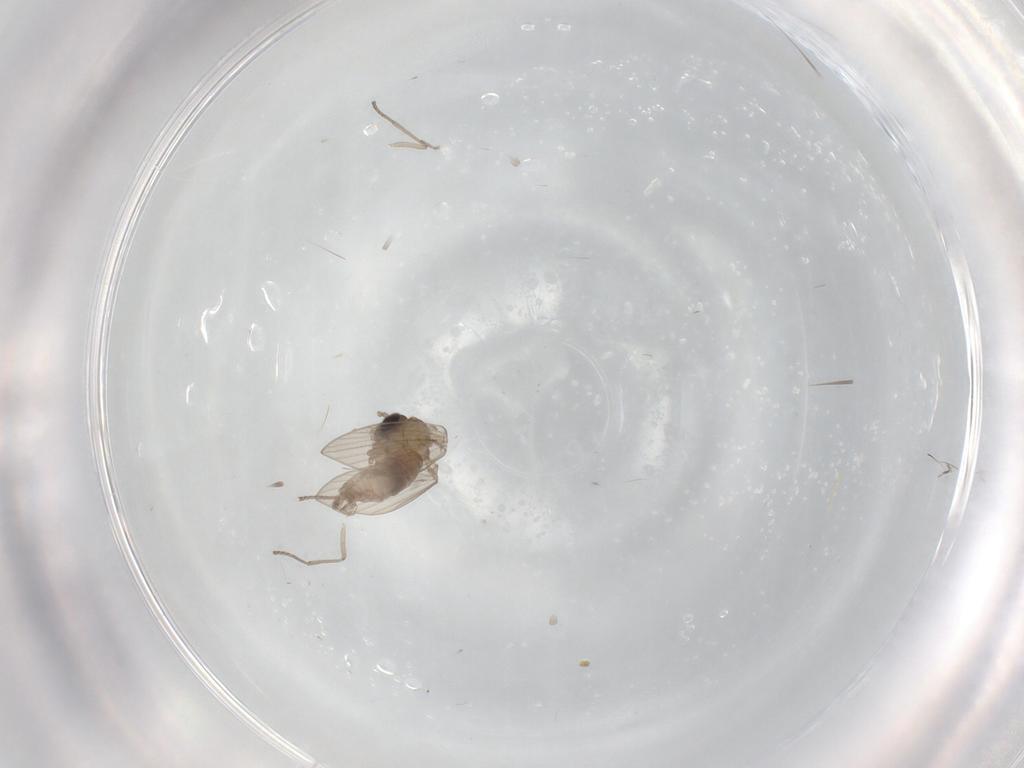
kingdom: Animalia
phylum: Arthropoda
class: Insecta
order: Diptera
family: Psychodidae
